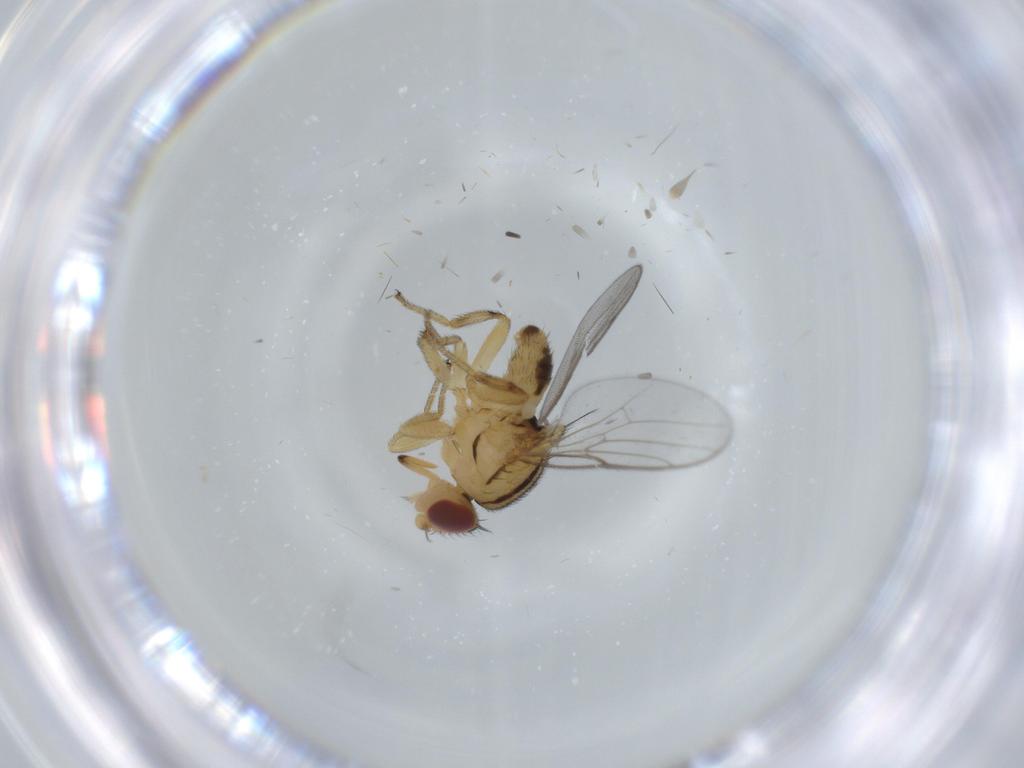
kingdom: Animalia
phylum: Arthropoda
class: Insecta
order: Diptera
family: Chloropidae
